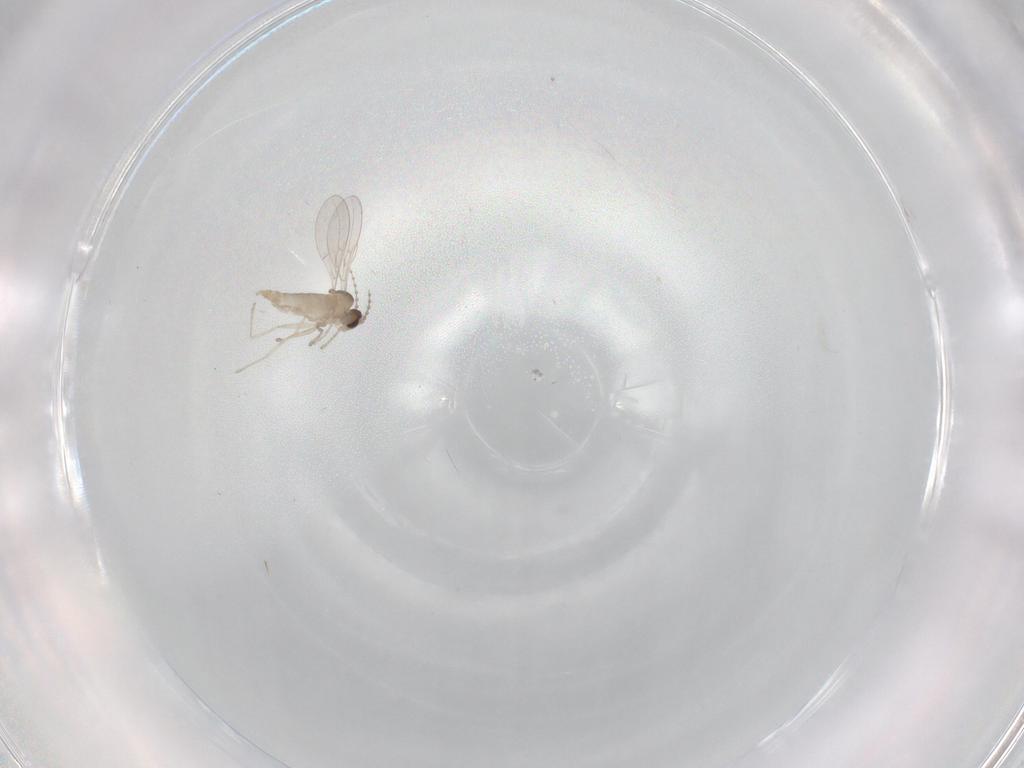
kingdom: Animalia
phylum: Arthropoda
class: Insecta
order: Diptera
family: Cecidomyiidae
